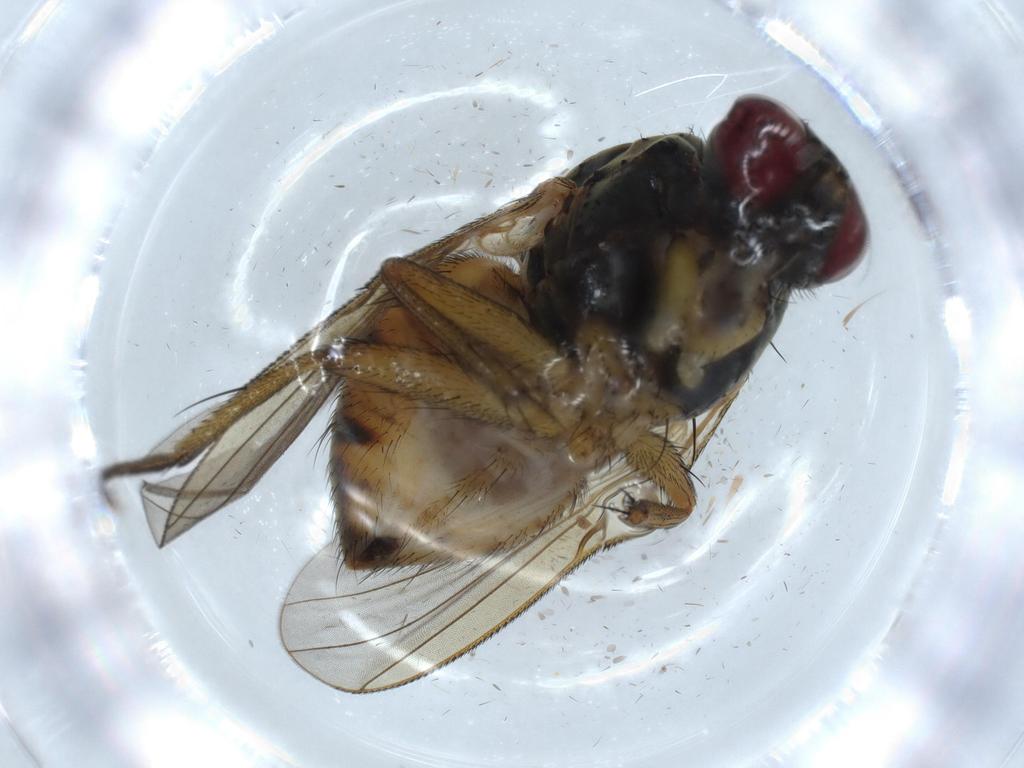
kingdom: Animalia
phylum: Arthropoda
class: Insecta
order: Diptera
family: Muscidae
